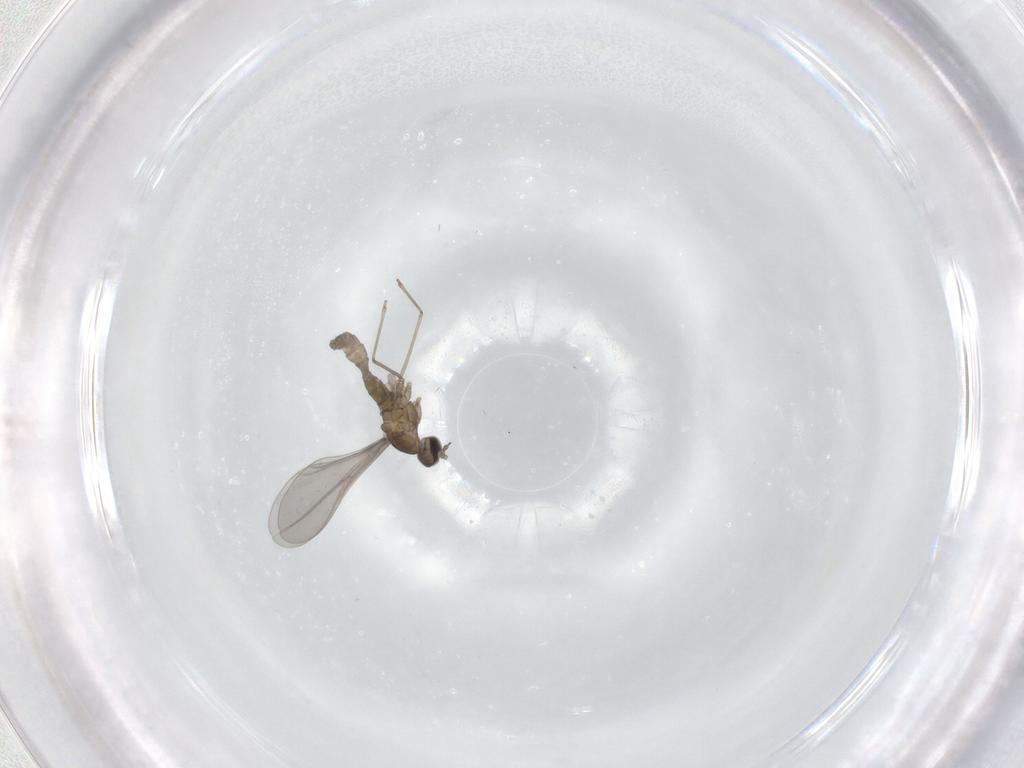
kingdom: Animalia
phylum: Arthropoda
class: Insecta
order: Diptera
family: Cecidomyiidae
